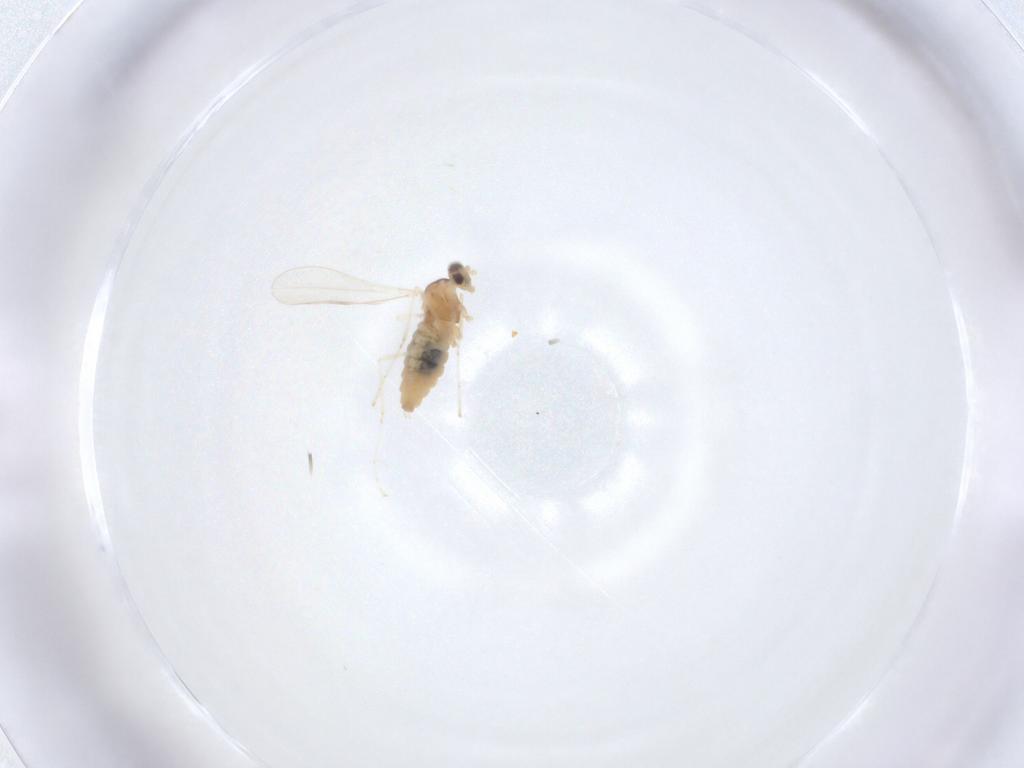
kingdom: Animalia
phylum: Arthropoda
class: Insecta
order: Diptera
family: Cecidomyiidae
